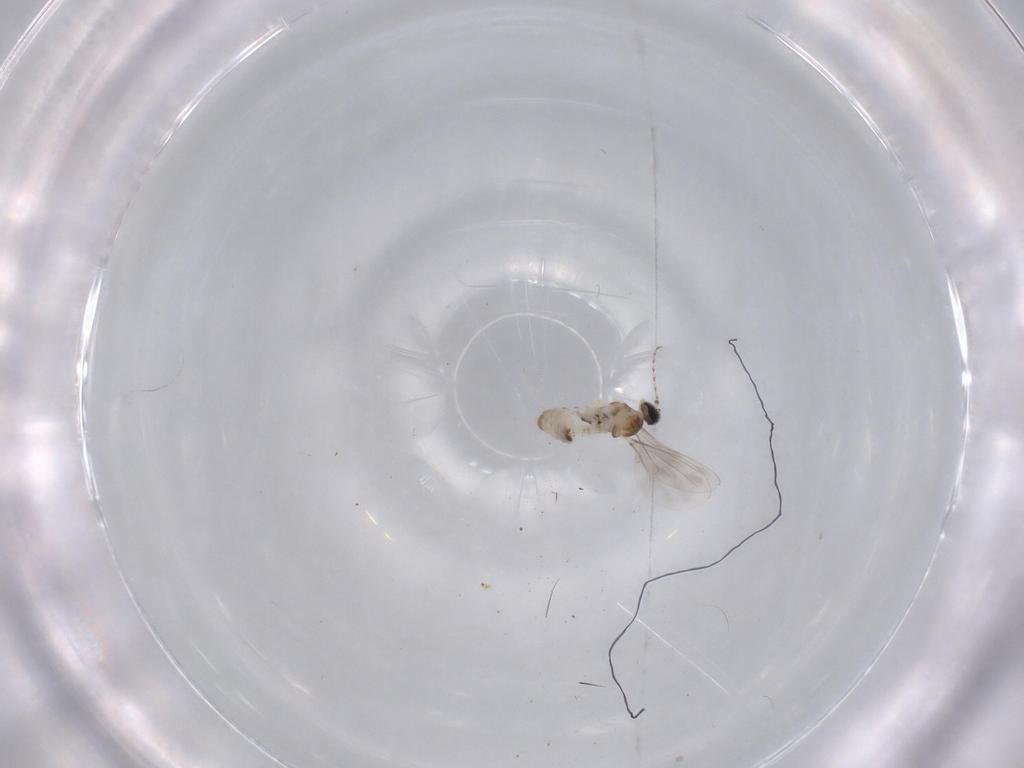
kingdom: Animalia
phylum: Arthropoda
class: Insecta
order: Diptera
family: Cecidomyiidae
